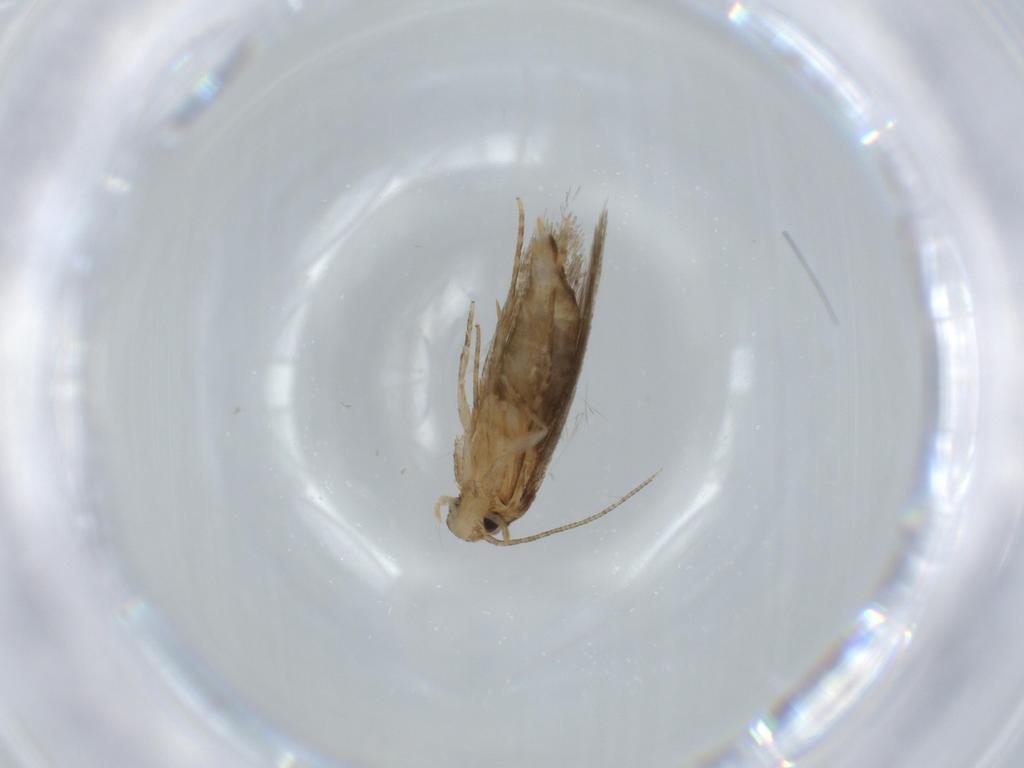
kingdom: Animalia
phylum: Arthropoda
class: Insecta
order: Lepidoptera
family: Tineidae
